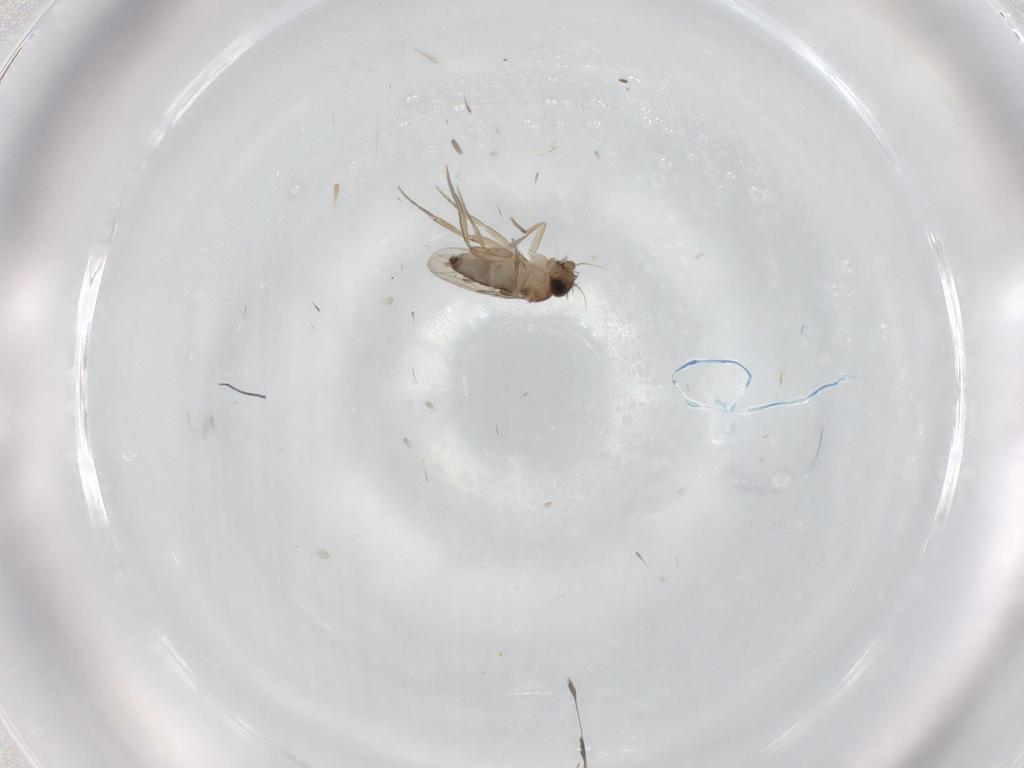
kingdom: Animalia
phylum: Arthropoda
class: Insecta
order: Diptera
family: Phoridae
